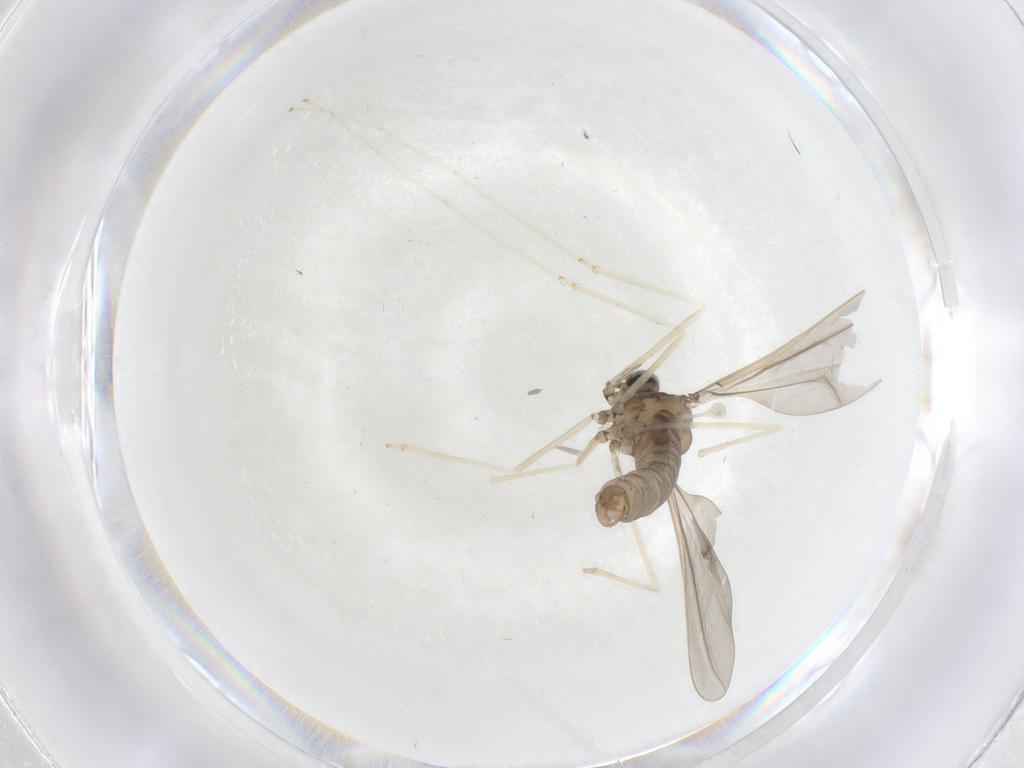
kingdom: Animalia
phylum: Arthropoda
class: Insecta
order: Diptera
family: Cecidomyiidae
